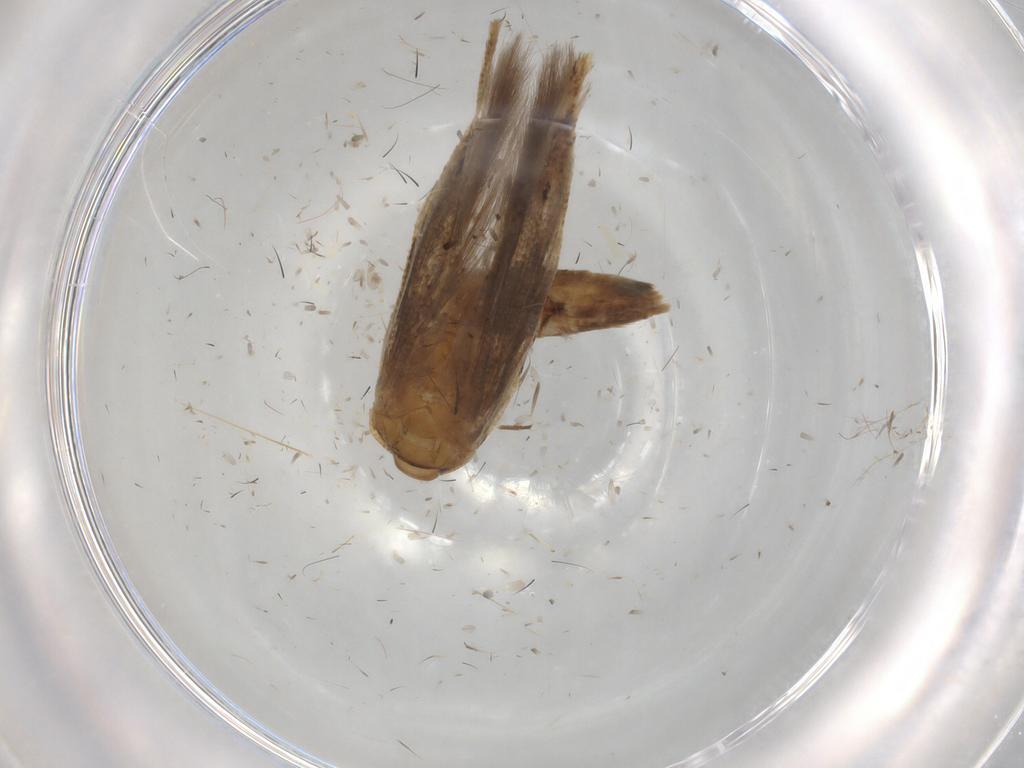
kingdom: Animalia
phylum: Arthropoda
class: Insecta
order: Lepidoptera
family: Cosmopterigidae
